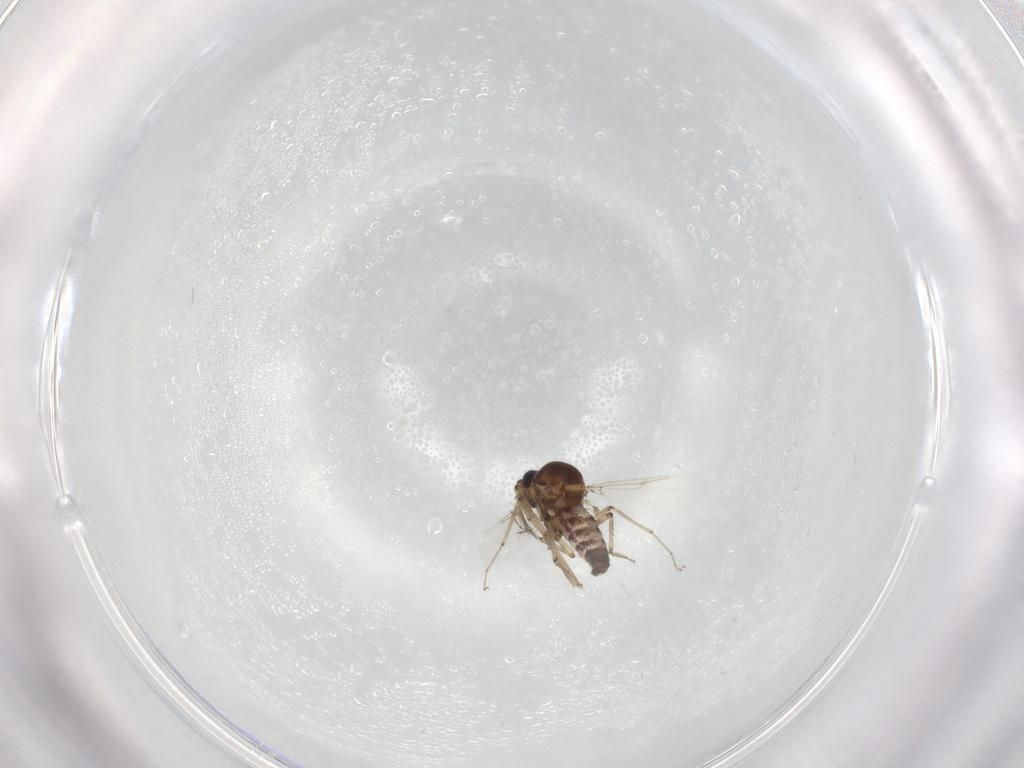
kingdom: Animalia
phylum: Arthropoda
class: Insecta
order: Diptera
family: Ceratopogonidae
